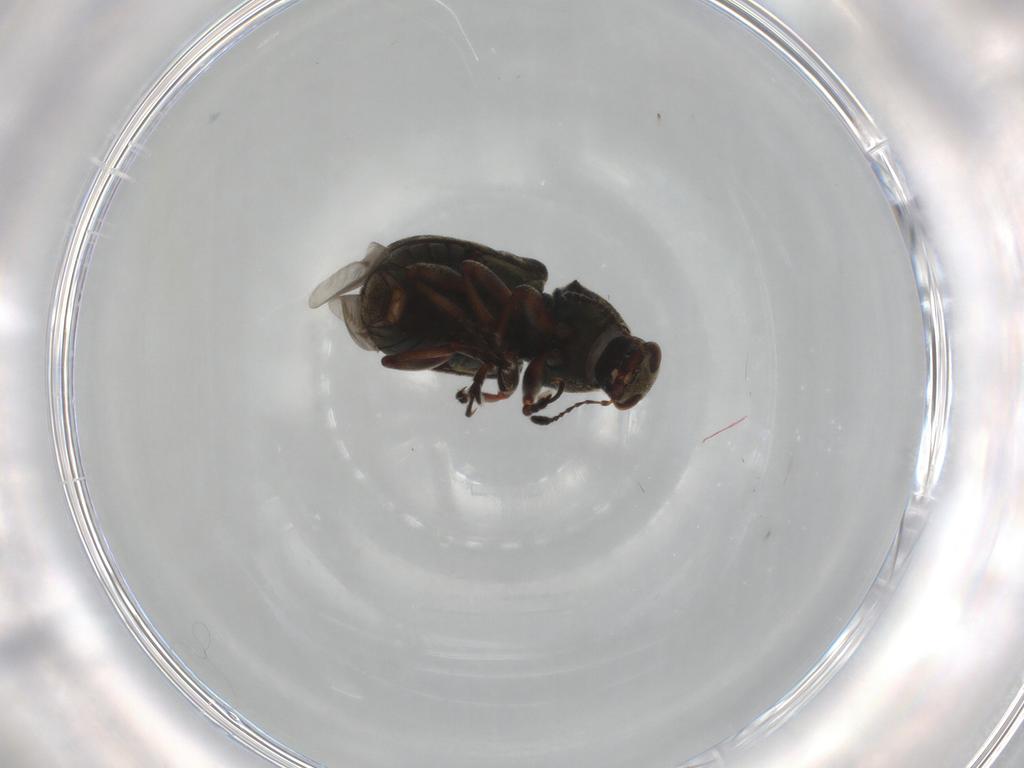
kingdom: Animalia
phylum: Arthropoda
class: Insecta
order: Coleoptera
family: Anthribidae
